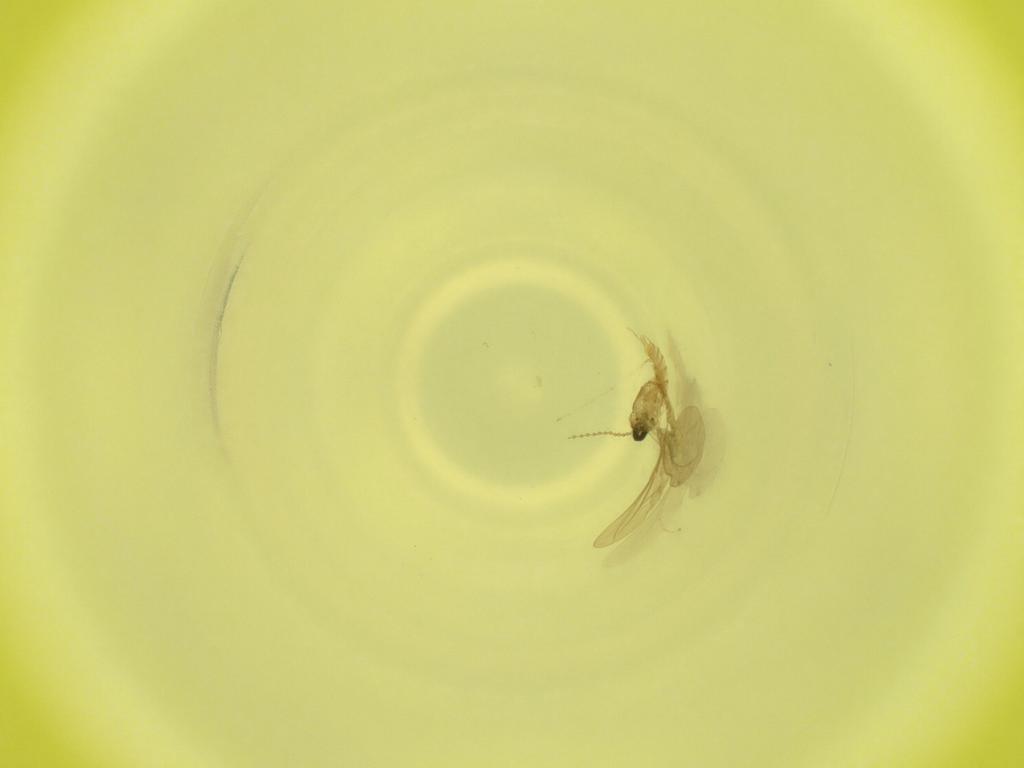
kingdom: Animalia
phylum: Arthropoda
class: Insecta
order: Diptera
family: Cecidomyiidae
